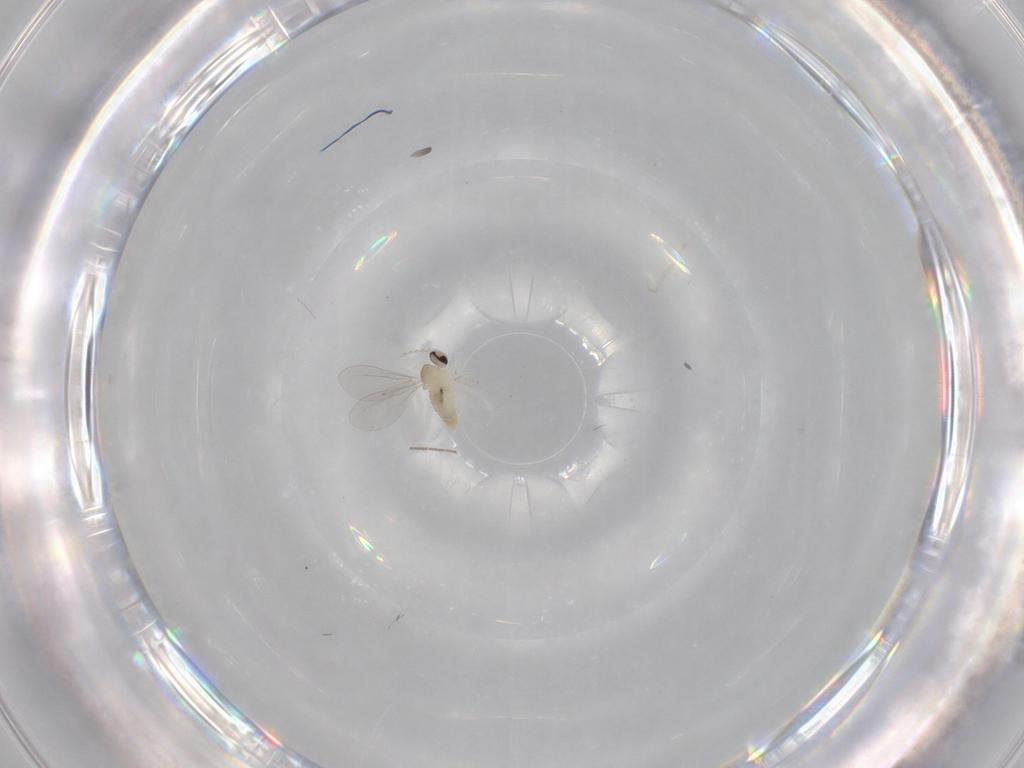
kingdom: Animalia
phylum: Arthropoda
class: Insecta
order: Diptera
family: Cecidomyiidae
